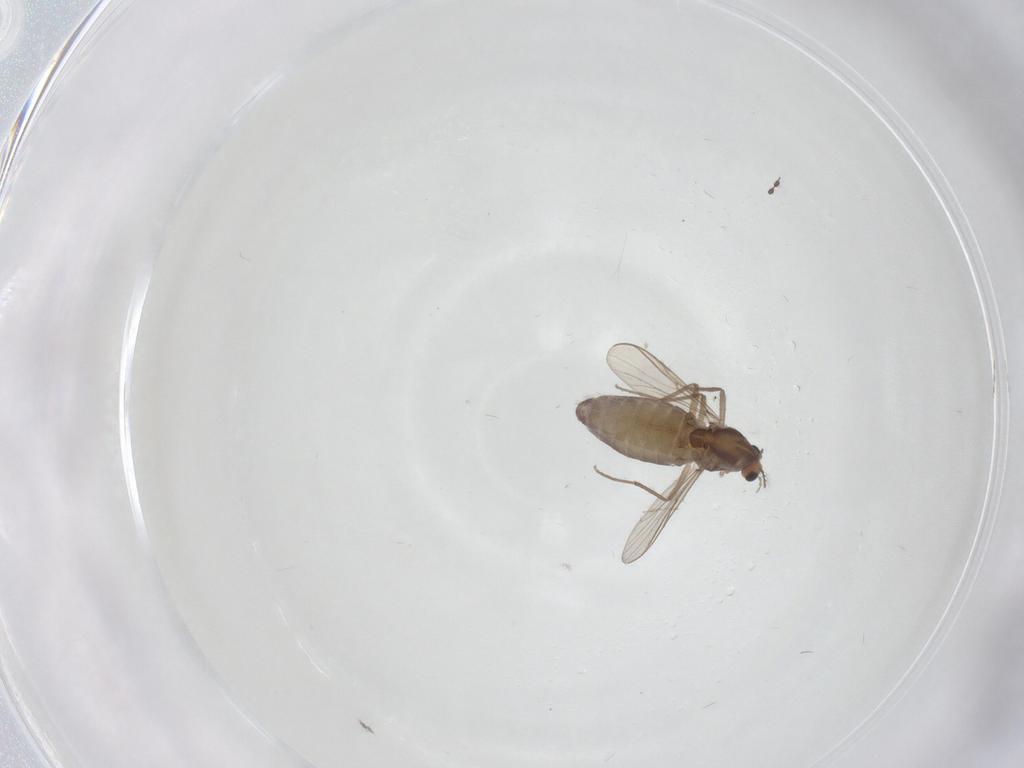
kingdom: Animalia
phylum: Arthropoda
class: Insecta
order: Diptera
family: Chironomidae
